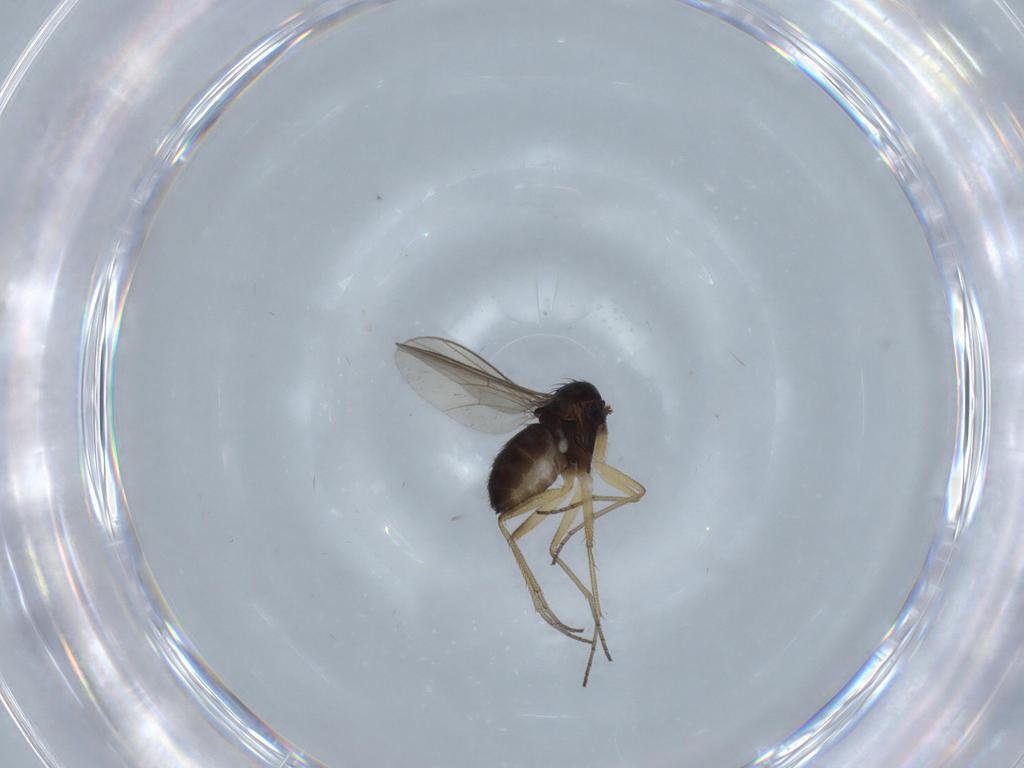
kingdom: Animalia
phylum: Arthropoda
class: Insecta
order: Diptera
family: Dolichopodidae
